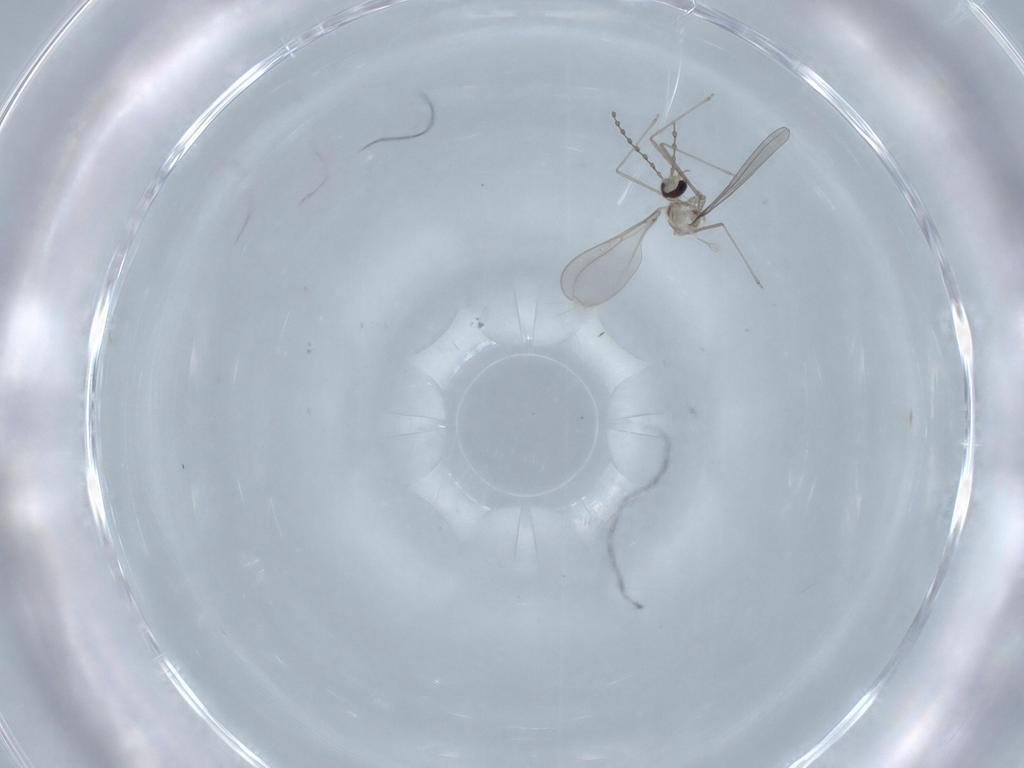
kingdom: Animalia
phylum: Arthropoda
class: Insecta
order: Diptera
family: Cecidomyiidae
